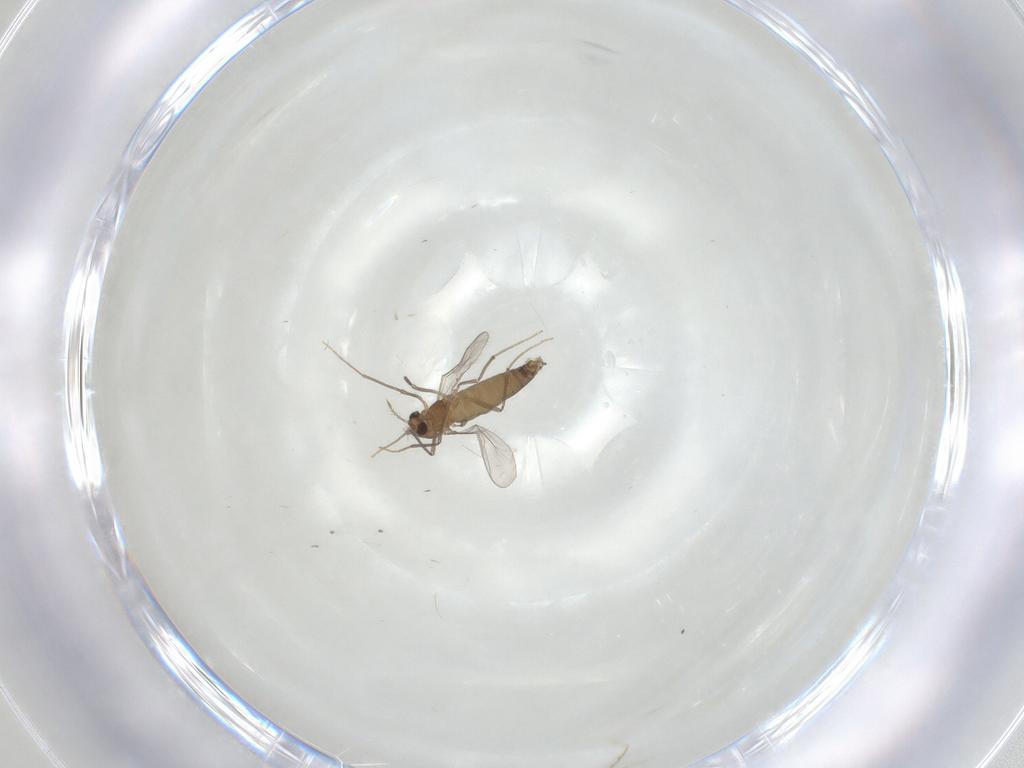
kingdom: Animalia
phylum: Arthropoda
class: Insecta
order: Diptera
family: Chironomidae
